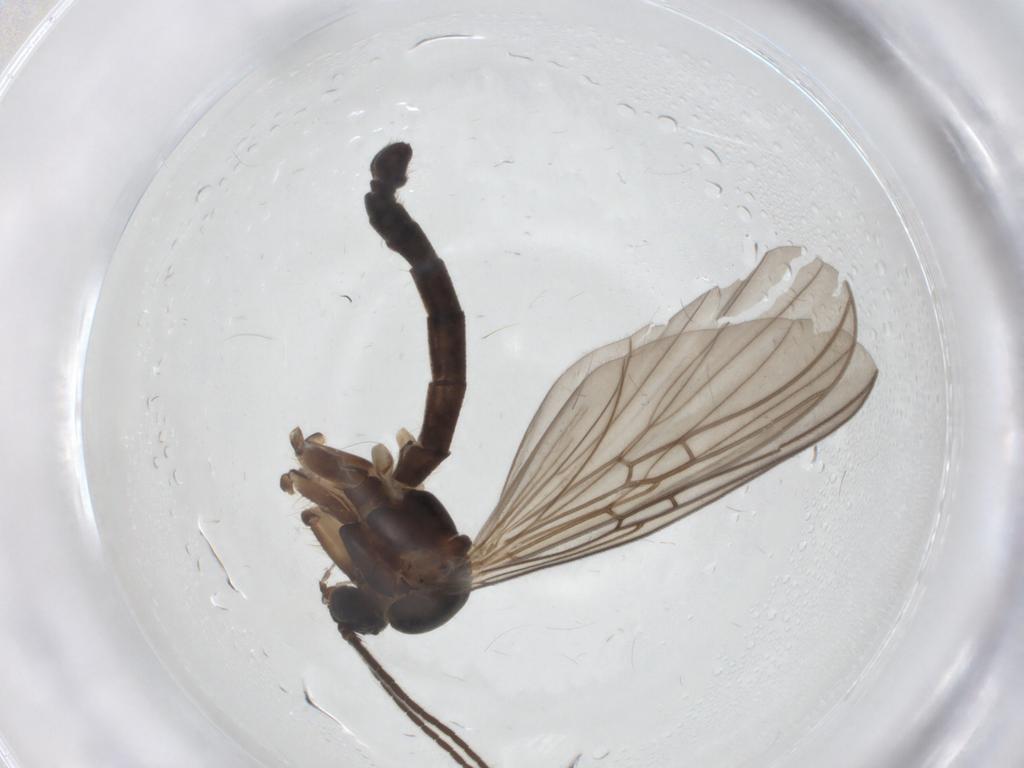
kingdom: Animalia
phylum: Arthropoda
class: Insecta
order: Diptera
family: Mycetophilidae
